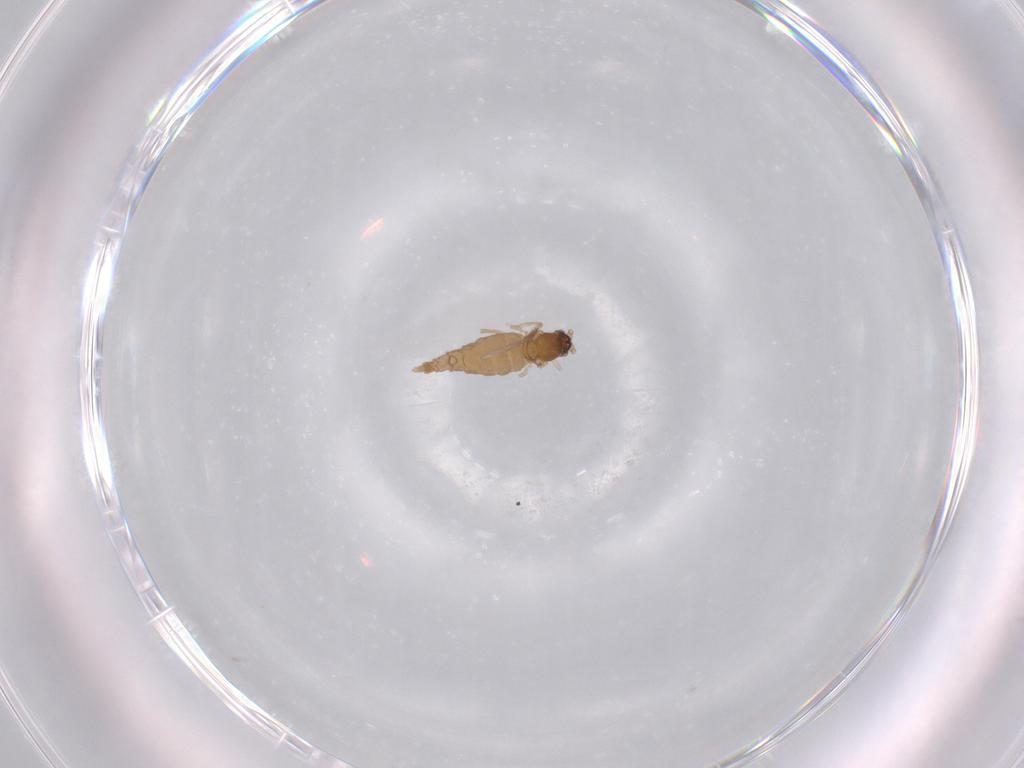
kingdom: Animalia
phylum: Arthropoda
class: Insecta
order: Diptera
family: Cecidomyiidae
